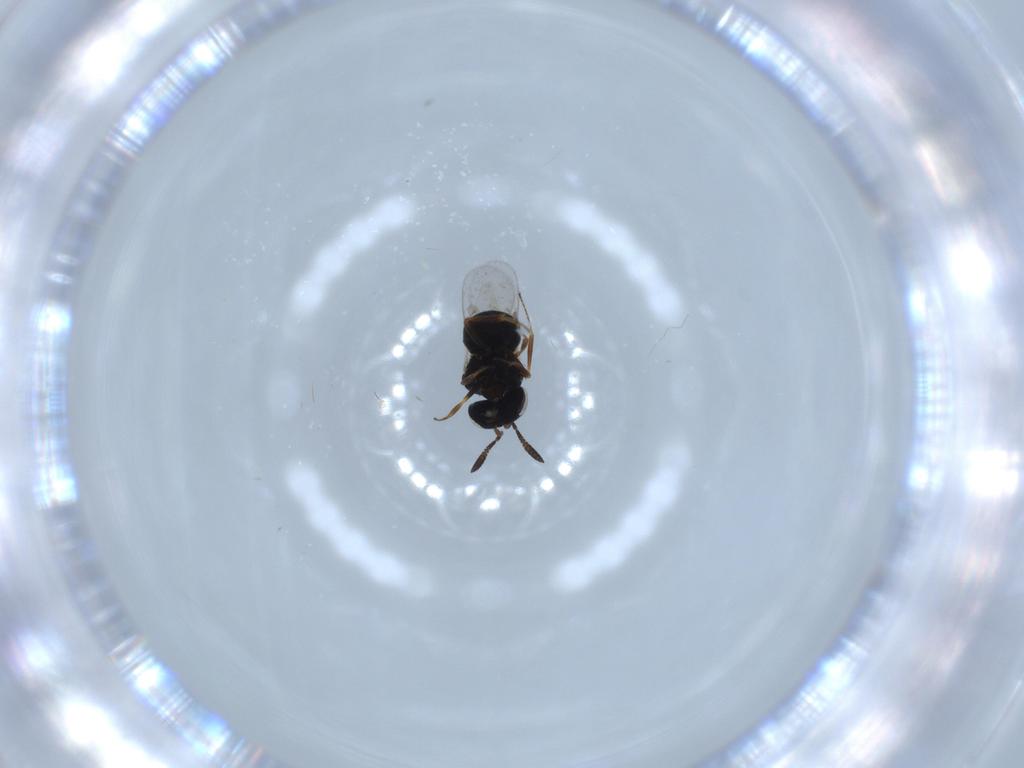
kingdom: Animalia
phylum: Arthropoda
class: Insecta
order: Hymenoptera
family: Scelionidae
